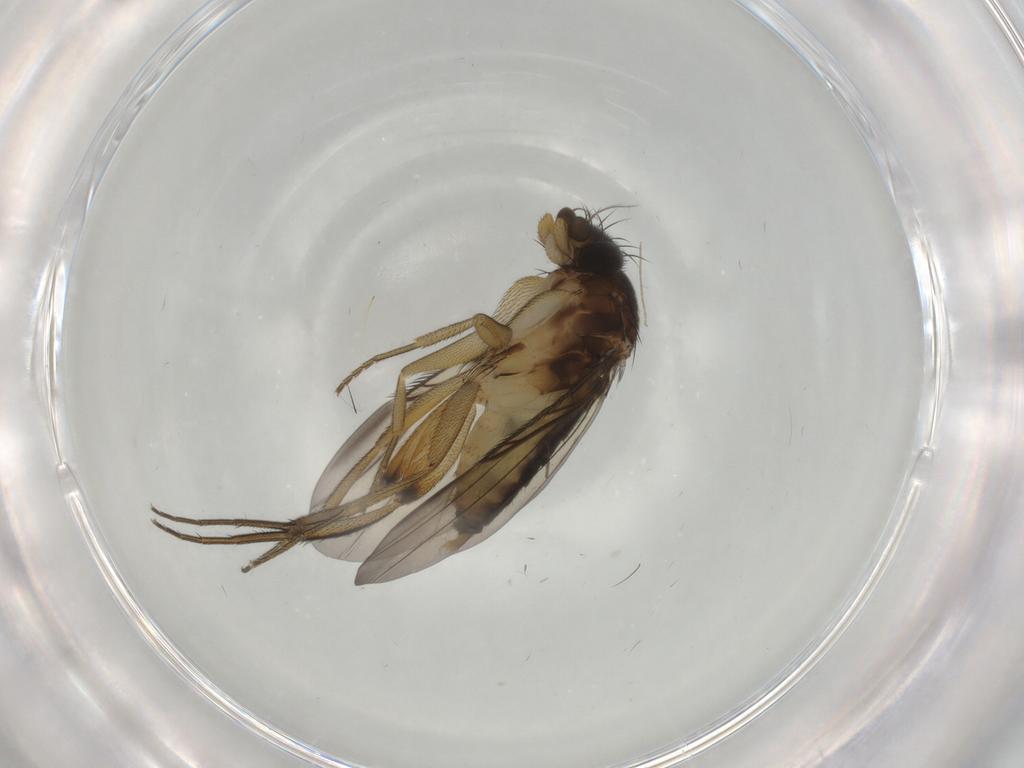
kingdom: Animalia
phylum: Arthropoda
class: Insecta
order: Diptera
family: Phoridae
